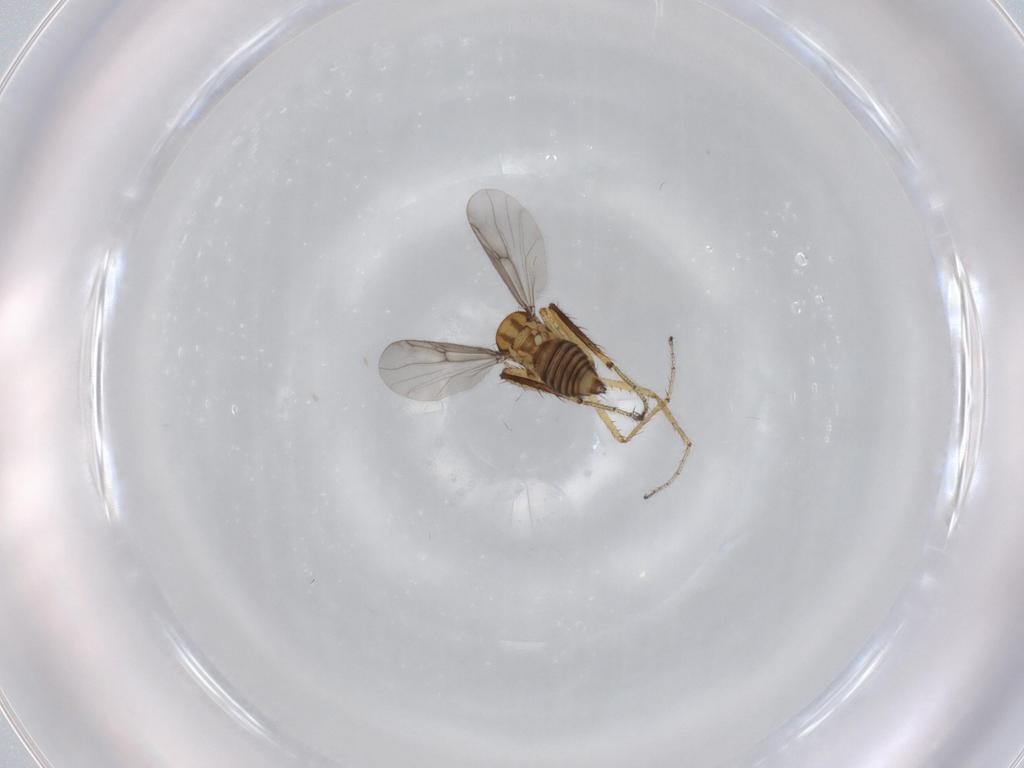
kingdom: Animalia
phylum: Arthropoda
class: Insecta
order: Diptera
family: Ceratopogonidae
